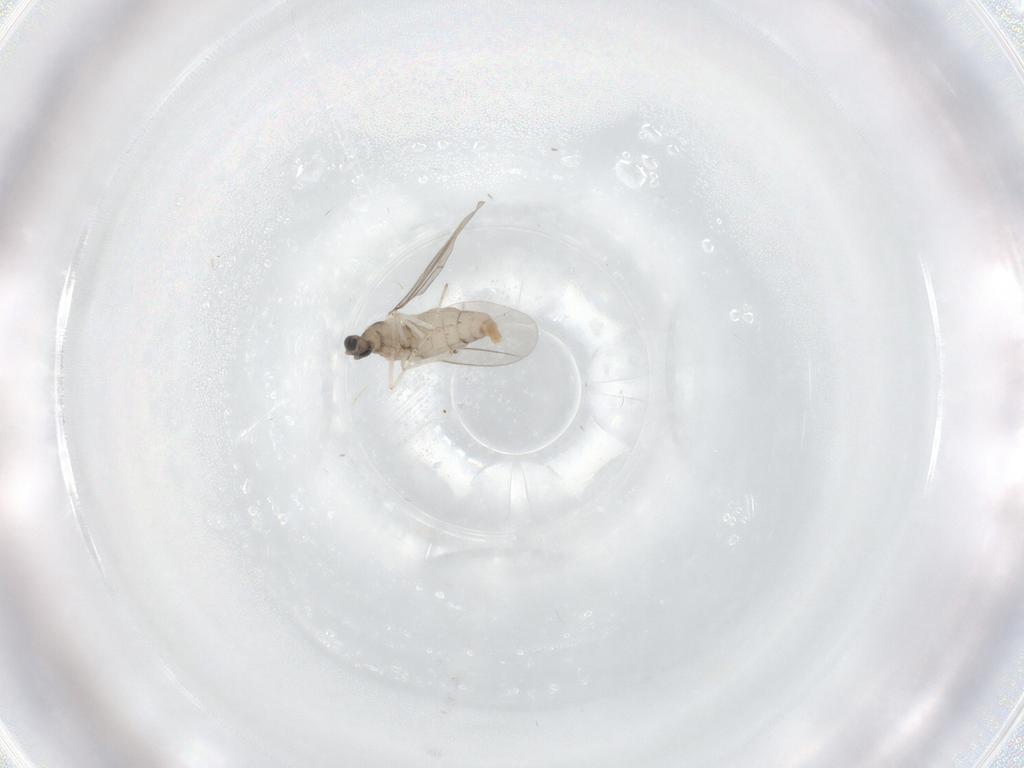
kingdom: Animalia
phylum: Arthropoda
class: Insecta
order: Diptera
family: Cecidomyiidae
